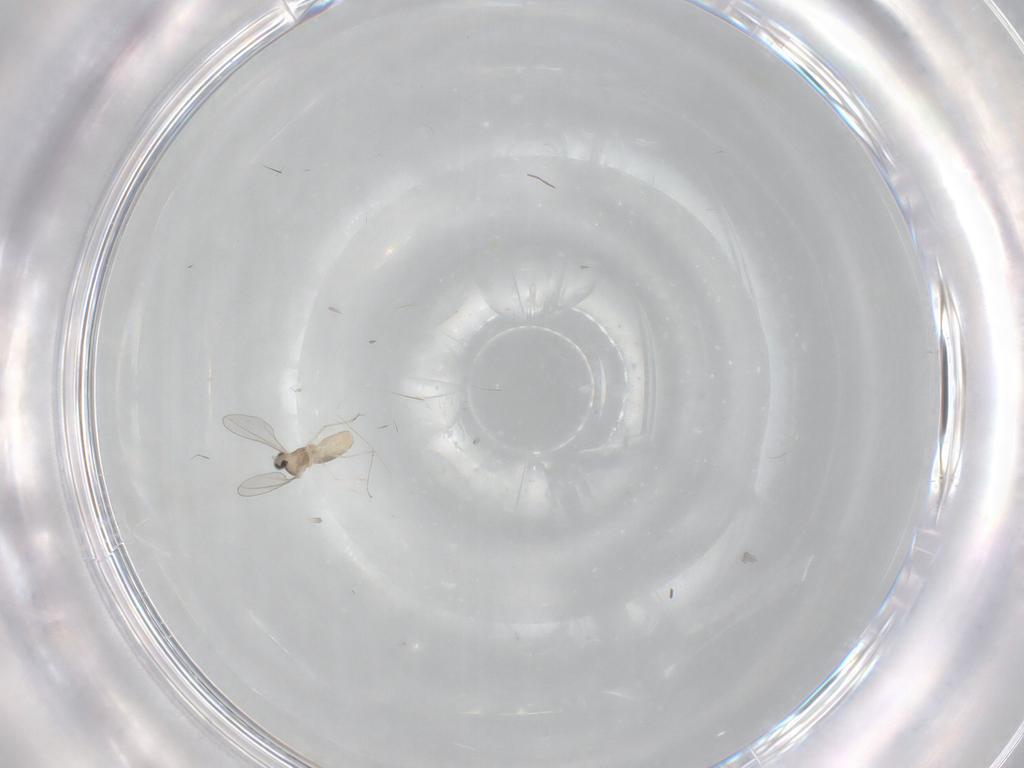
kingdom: Animalia
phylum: Arthropoda
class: Insecta
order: Diptera
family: Cecidomyiidae
